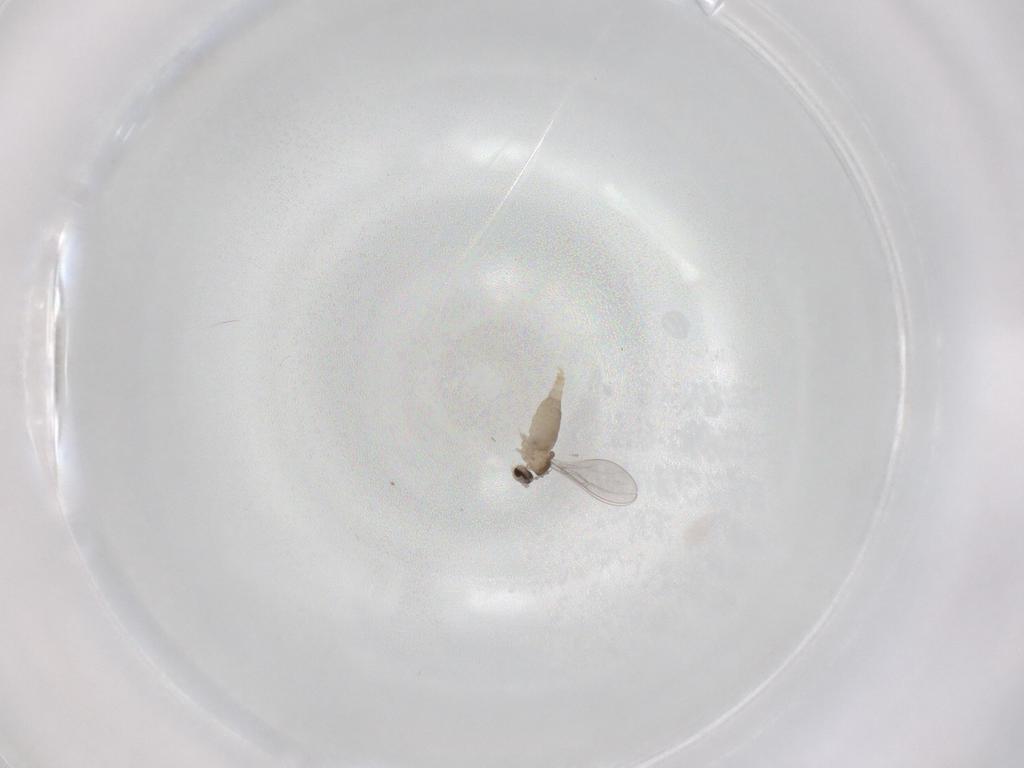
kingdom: Animalia
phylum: Arthropoda
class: Insecta
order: Diptera
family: Cecidomyiidae
